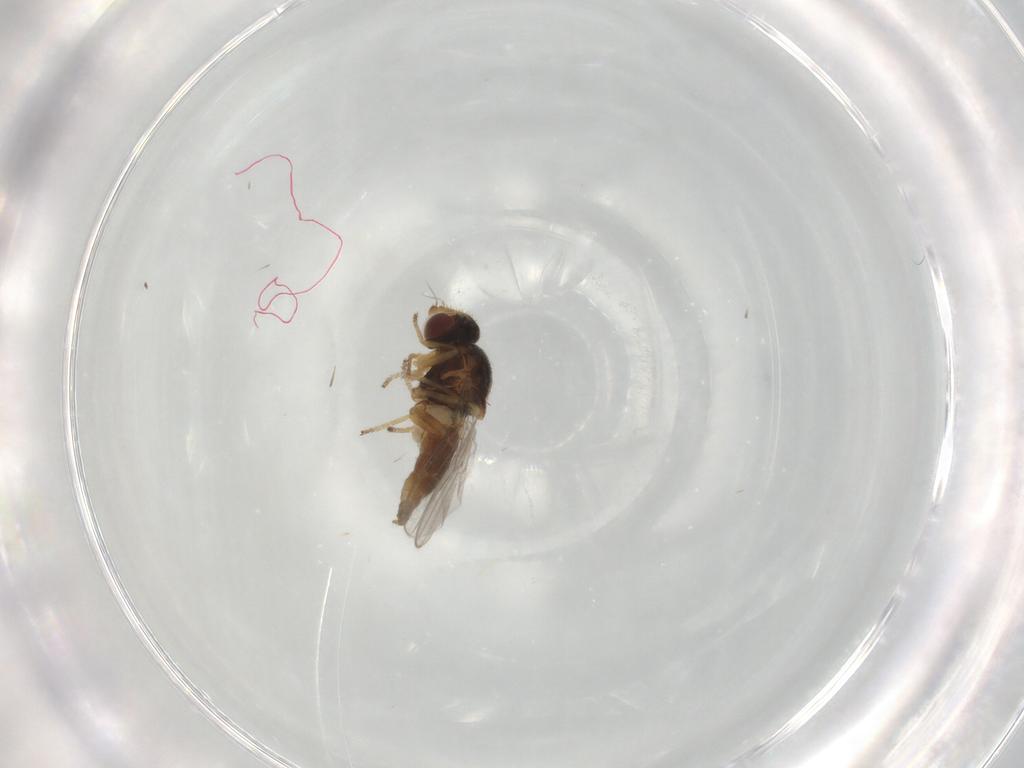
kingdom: Animalia
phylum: Arthropoda
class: Insecta
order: Diptera
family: Chloropidae
